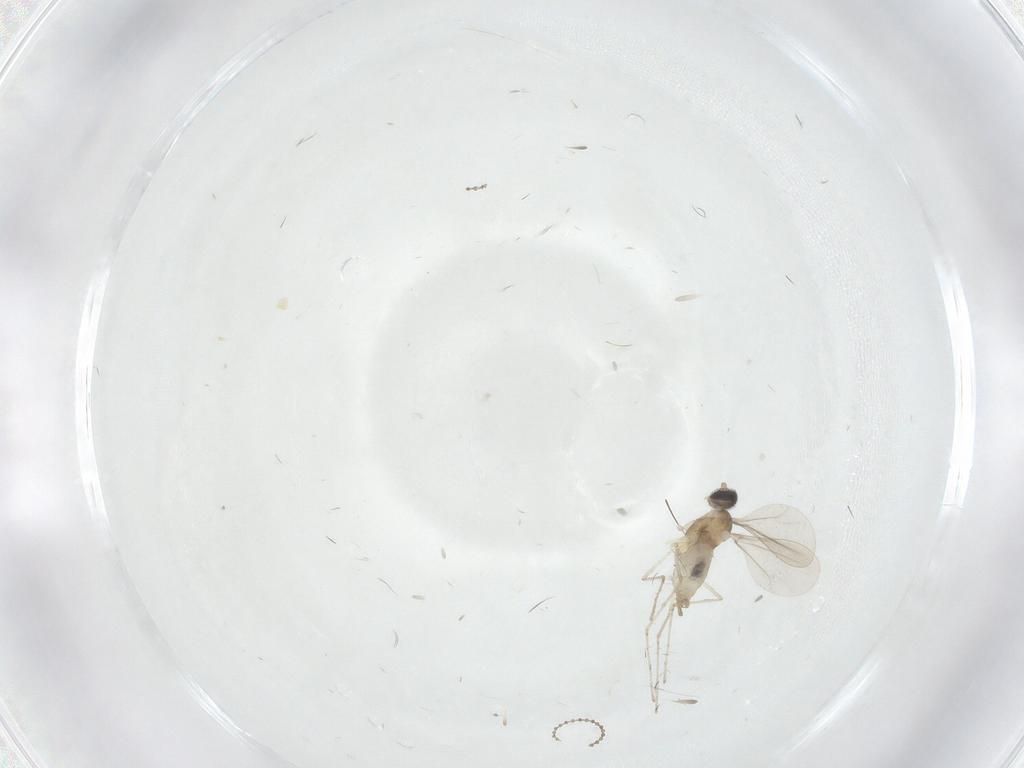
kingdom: Animalia
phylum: Arthropoda
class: Insecta
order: Diptera
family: Cecidomyiidae
